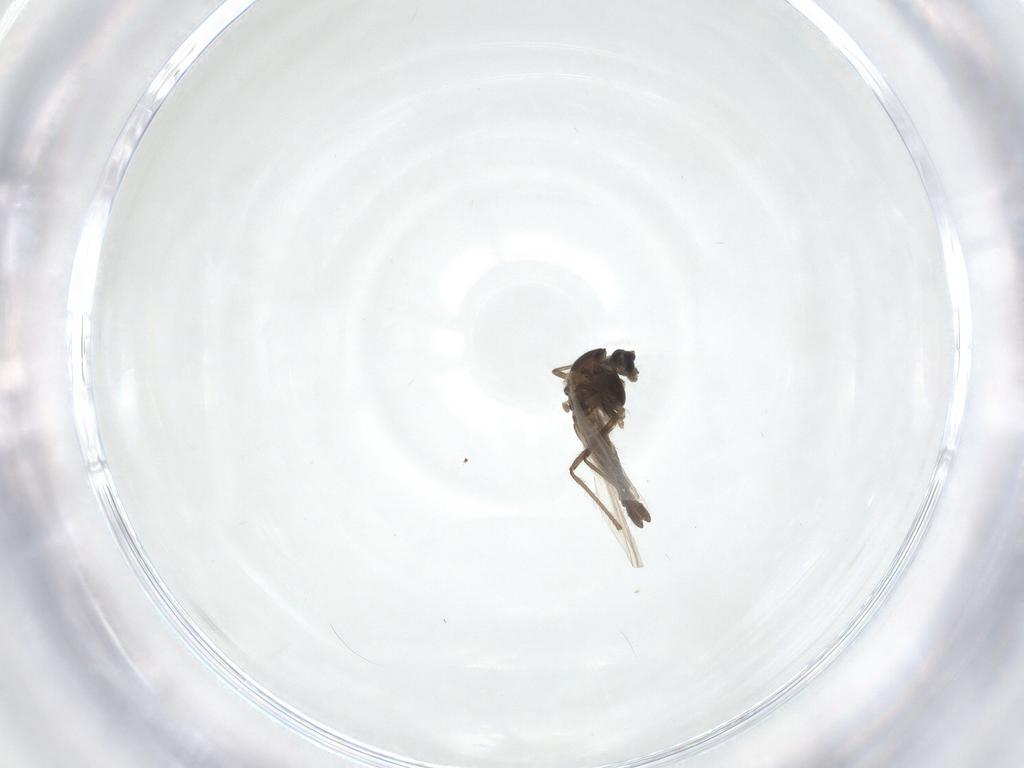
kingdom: Animalia
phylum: Arthropoda
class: Insecta
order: Diptera
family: Chironomidae
